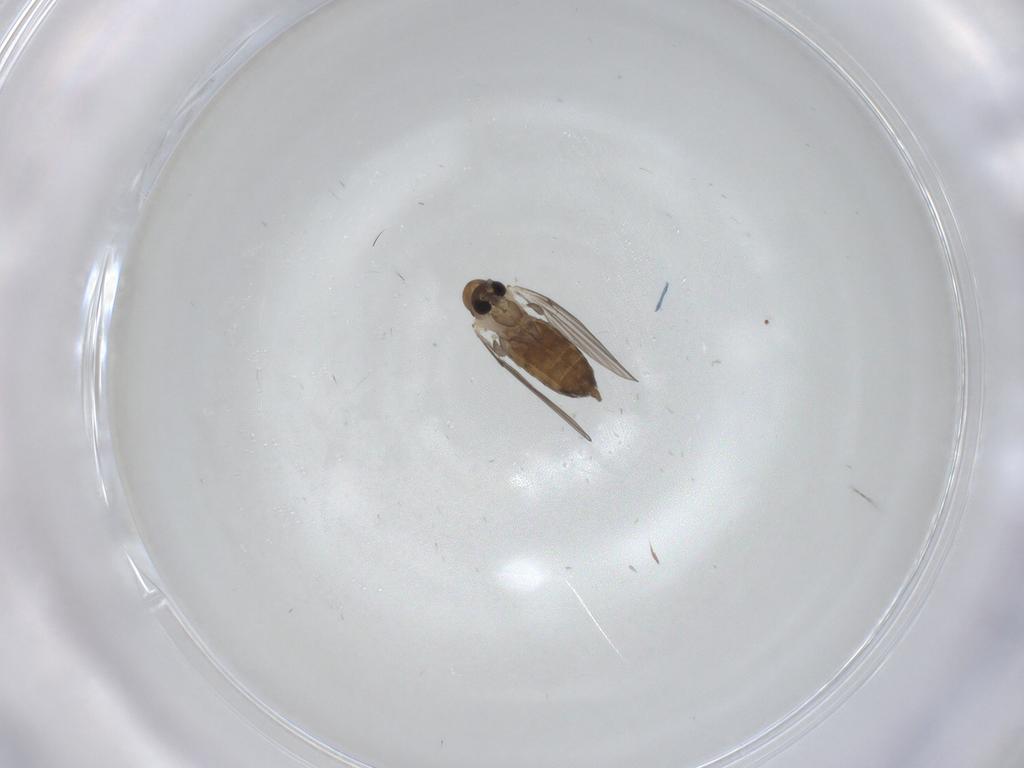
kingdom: Animalia
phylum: Arthropoda
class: Insecta
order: Diptera
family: Psychodidae
